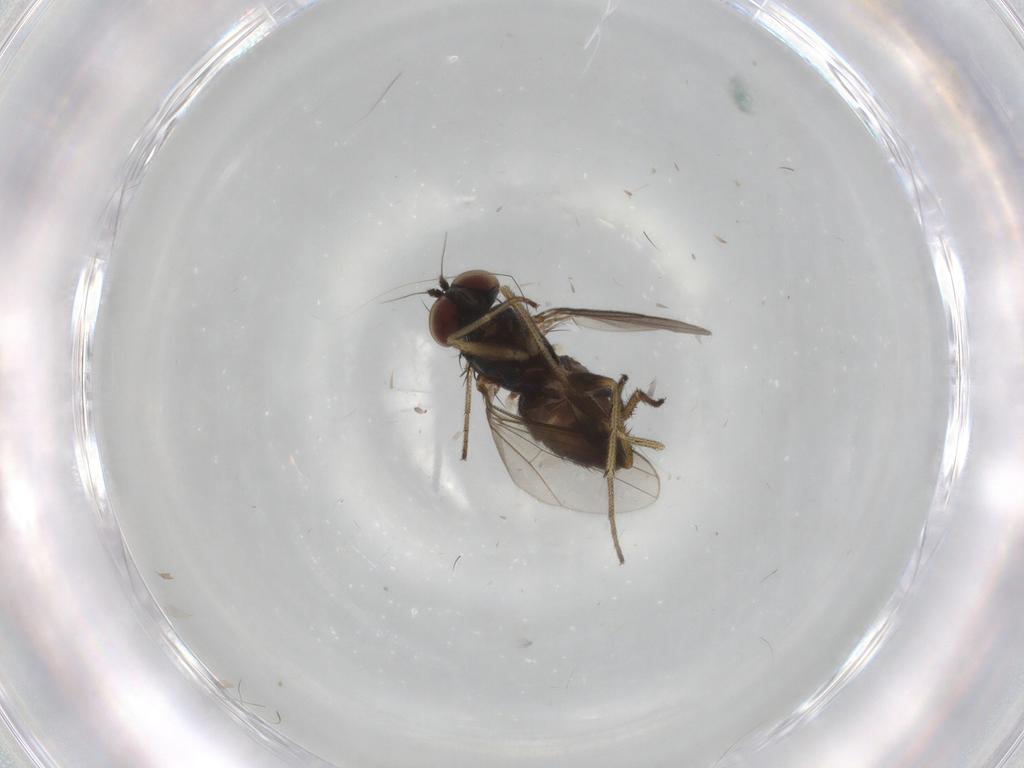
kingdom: Animalia
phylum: Arthropoda
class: Insecta
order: Diptera
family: Dolichopodidae
